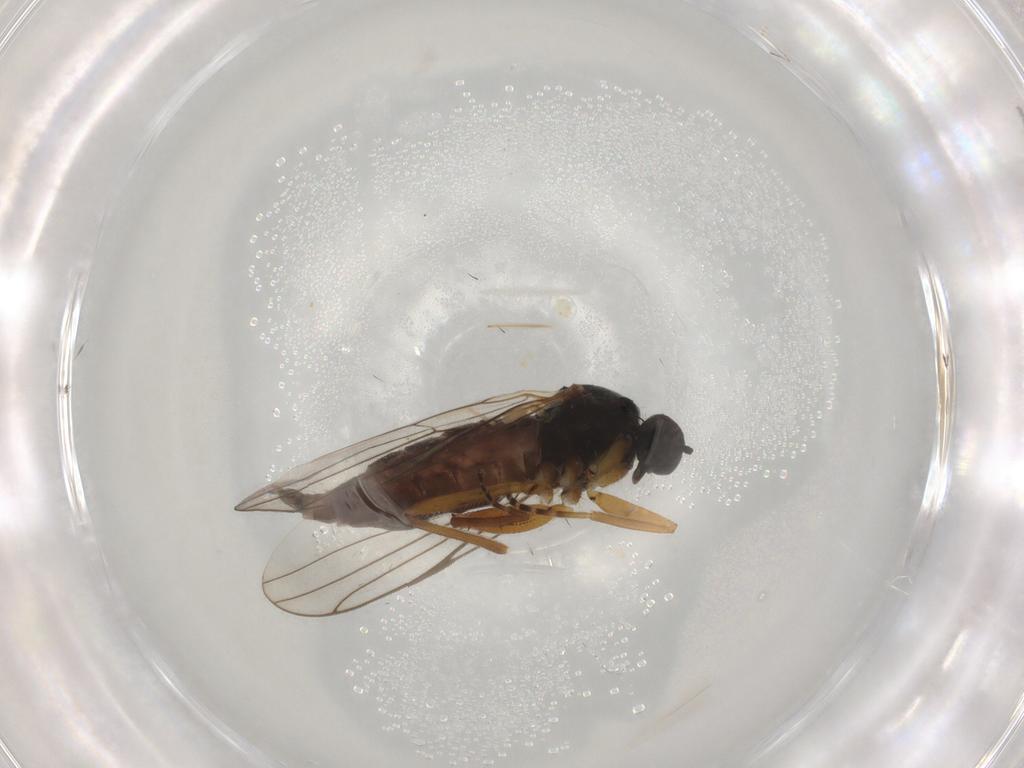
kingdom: Animalia
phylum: Arthropoda
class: Insecta
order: Diptera
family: Hybotidae
